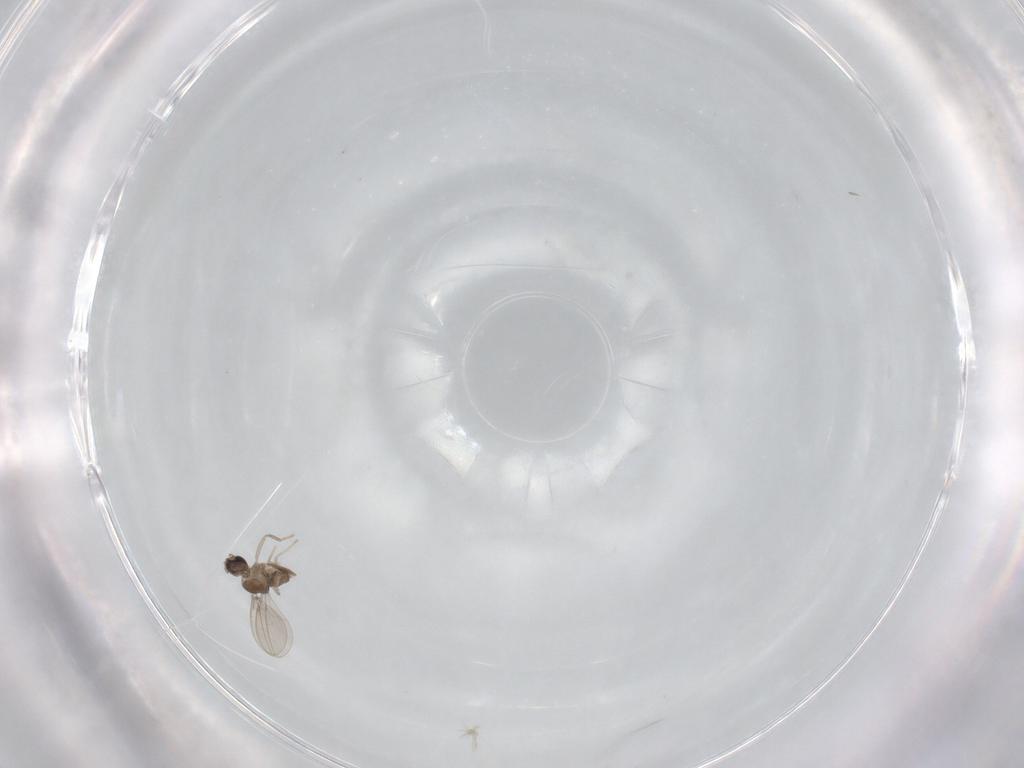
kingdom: Animalia
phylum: Arthropoda
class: Insecta
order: Diptera
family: Cecidomyiidae
